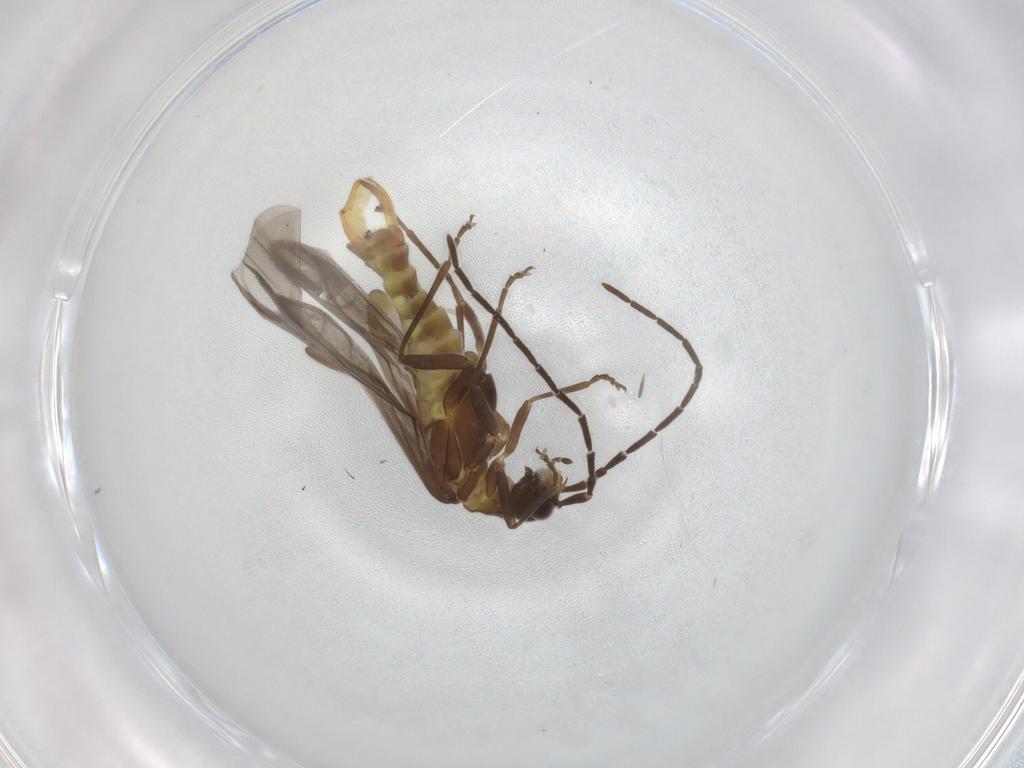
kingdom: Animalia
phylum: Arthropoda
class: Insecta
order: Coleoptera
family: Cantharidae
